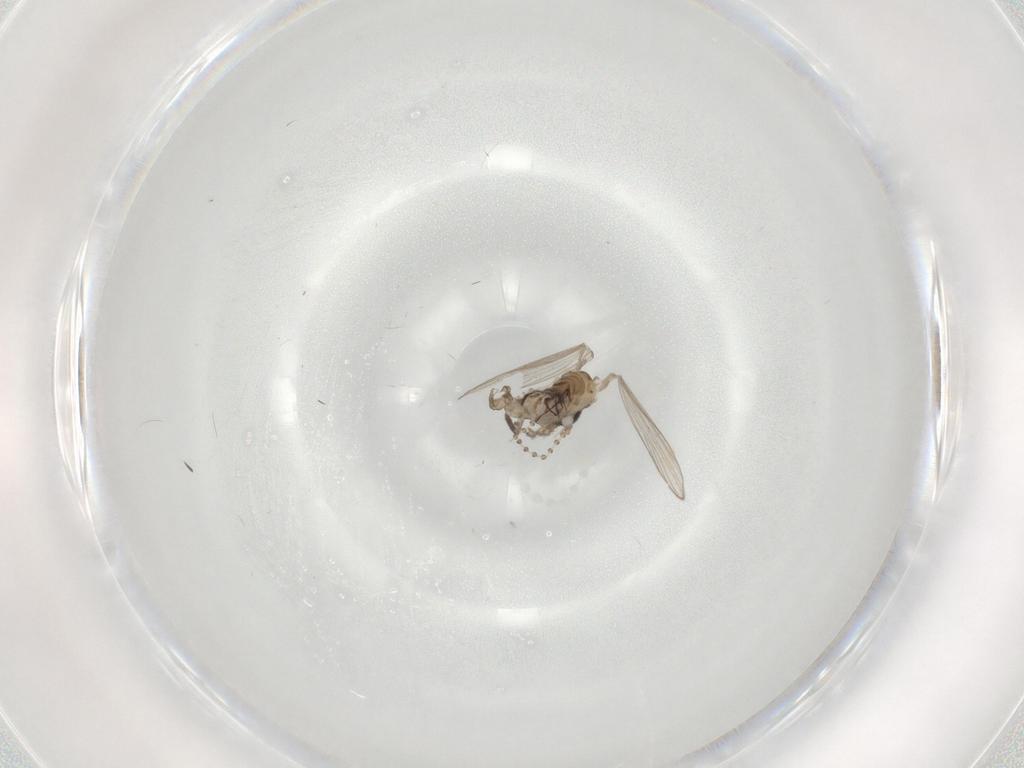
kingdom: Animalia
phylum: Arthropoda
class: Insecta
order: Diptera
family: Psychodidae
